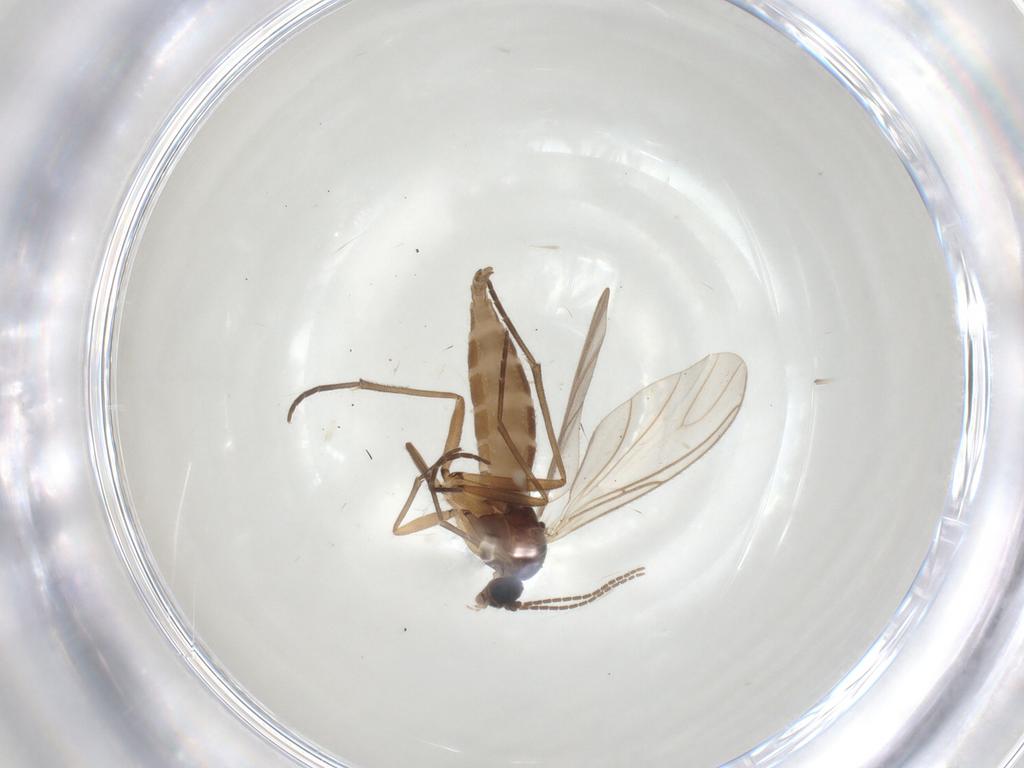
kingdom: Animalia
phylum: Arthropoda
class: Insecta
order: Diptera
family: Sciaridae
